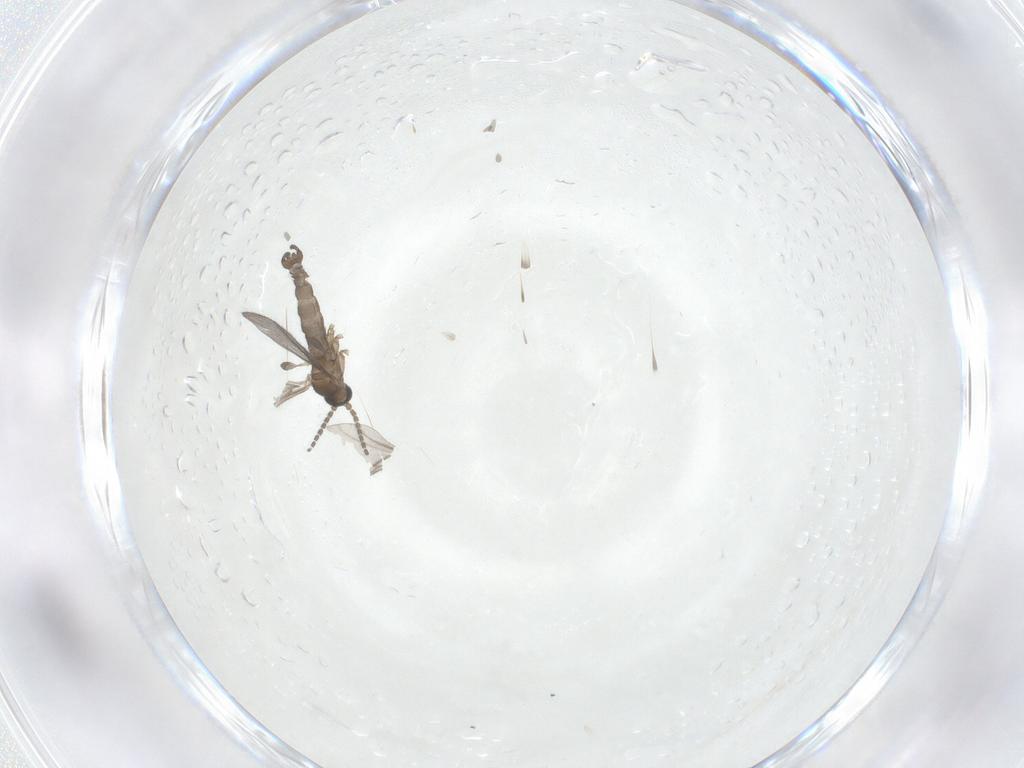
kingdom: Animalia
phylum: Arthropoda
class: Insecta
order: Diptera
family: Sciaridae
